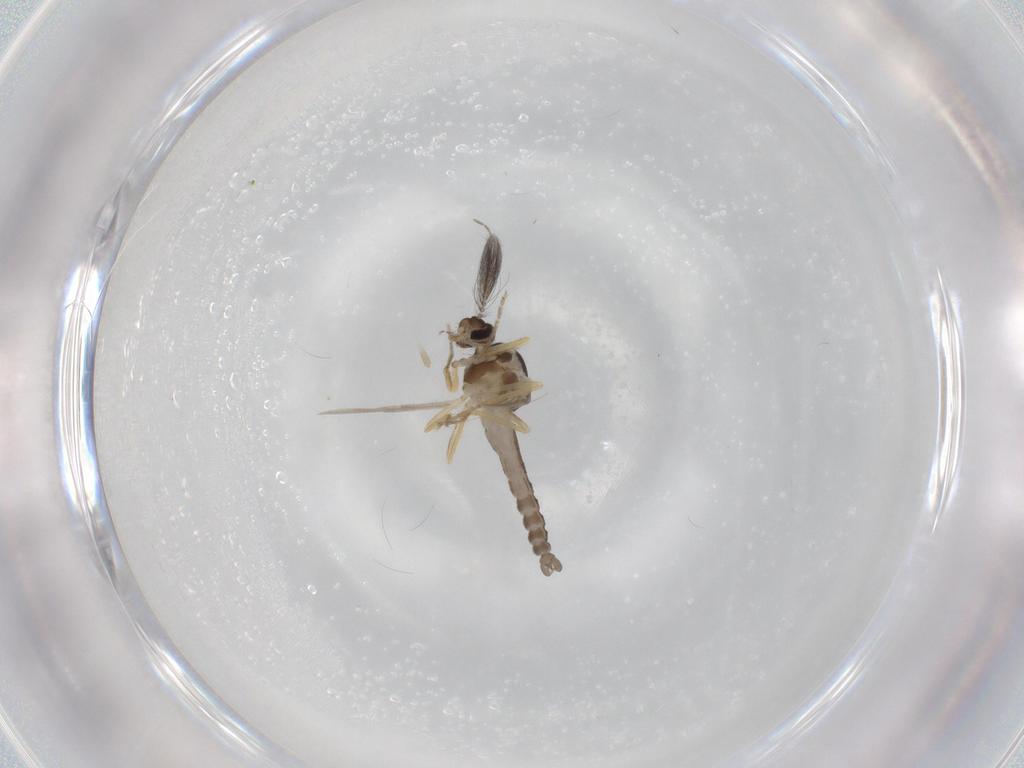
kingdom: Animalia
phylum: Arthropoda
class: Insecta
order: Diptera
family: Ceratopogonidae
